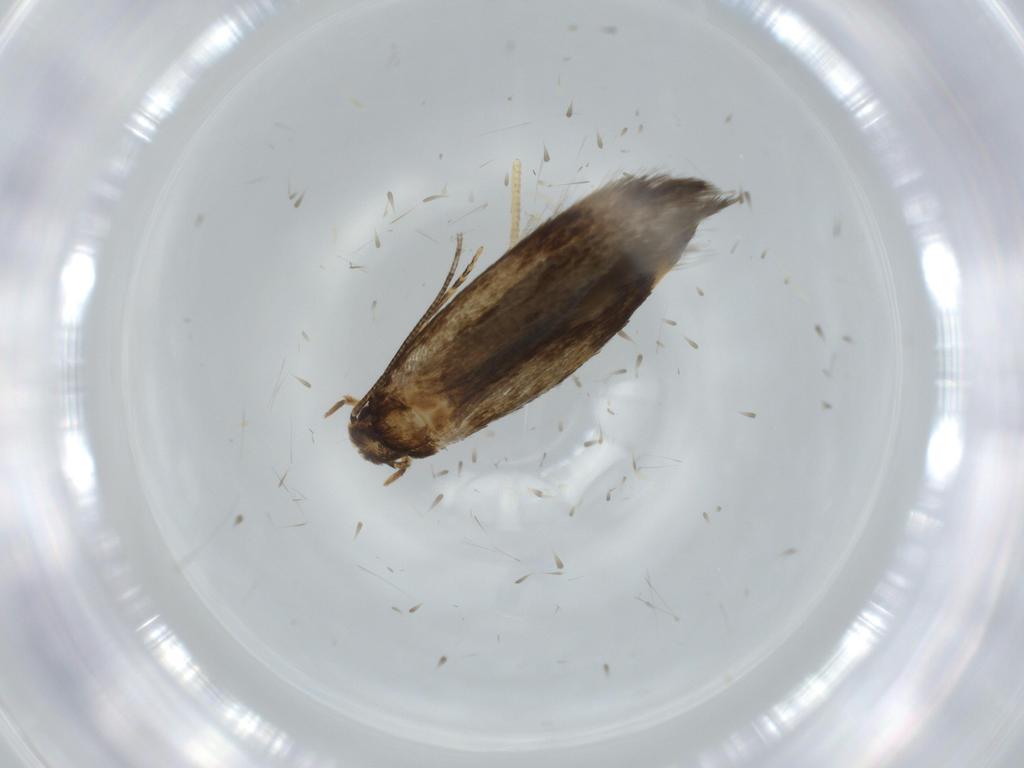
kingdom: Animalia
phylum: Arthropoda
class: Insecta
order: Lepidoptera
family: Tineidae
